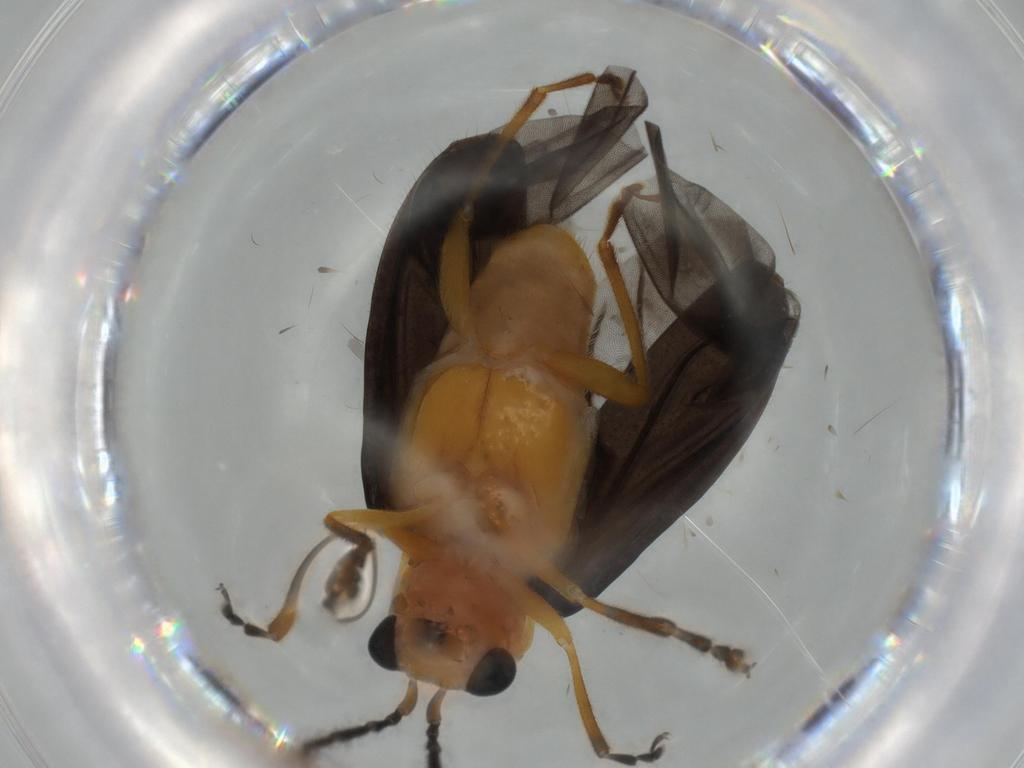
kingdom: Animalia
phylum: Arthropoda
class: Insecta
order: Coleoptera
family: Chrysomelidae
